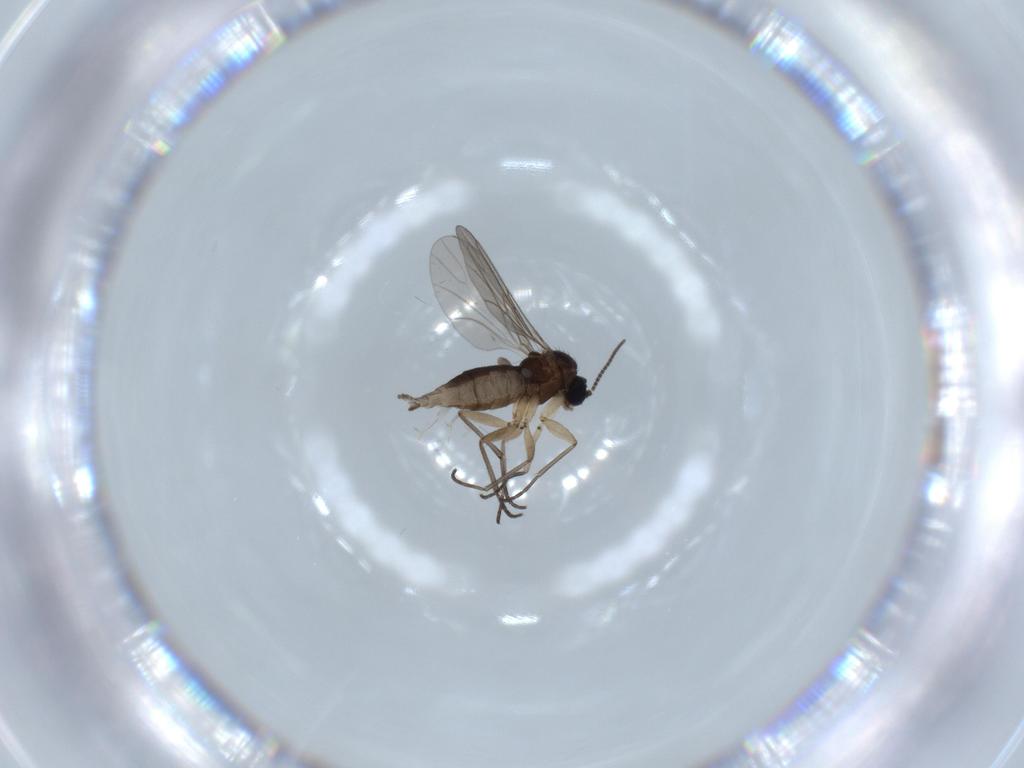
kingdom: Animalia
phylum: Arthropoda
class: Insecta
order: Diptera
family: Sciaridae
